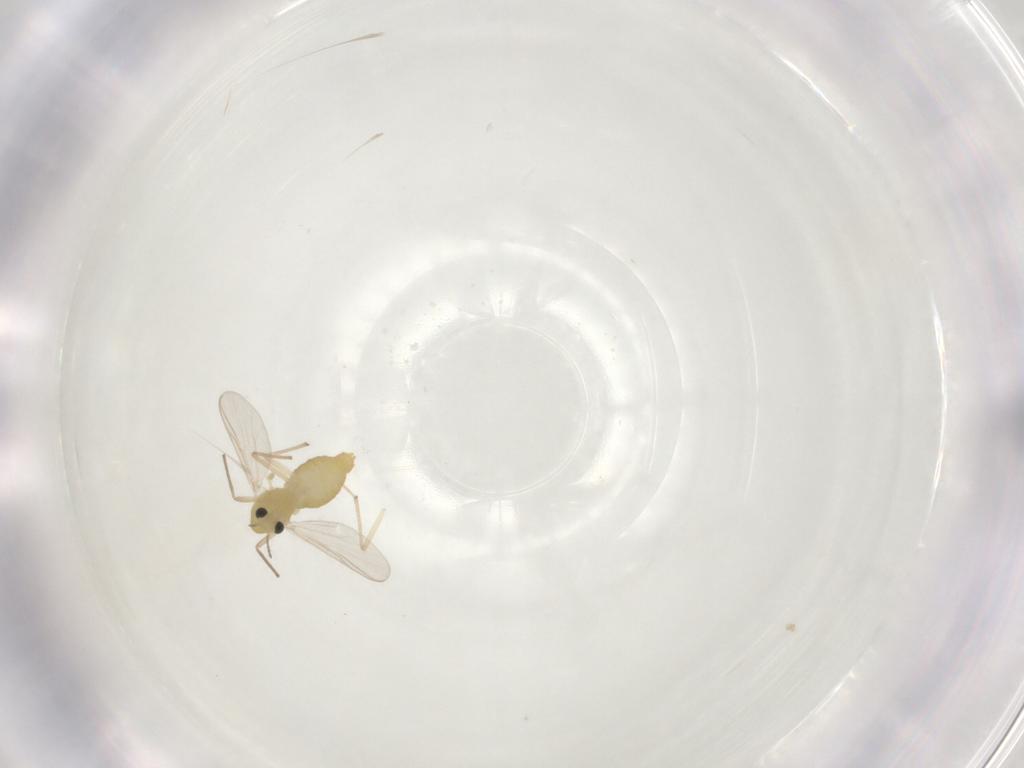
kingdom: Animalia
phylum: Arthropoda
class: Insecta
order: Diptera
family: Chironomidae
